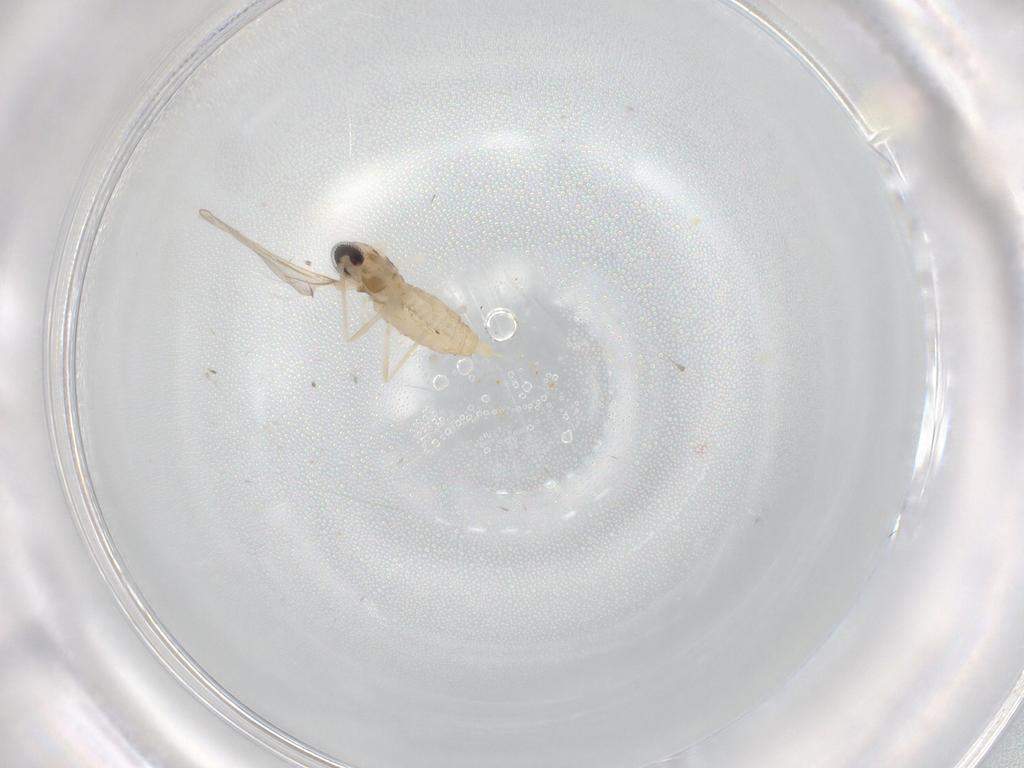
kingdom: Animalia
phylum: Arthropoda
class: Insecta
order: Diptera
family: Cecidomyiidae
